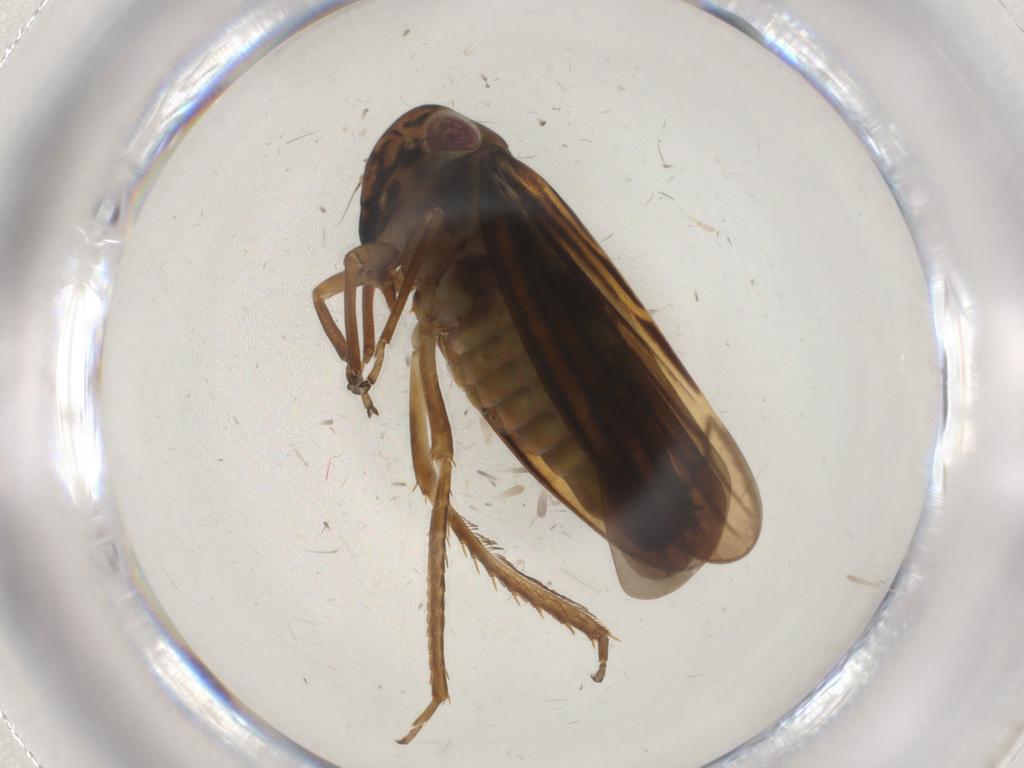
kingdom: Animalia
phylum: Arthropoda
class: Insecta
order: Hemiptera
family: Cicadellidae
